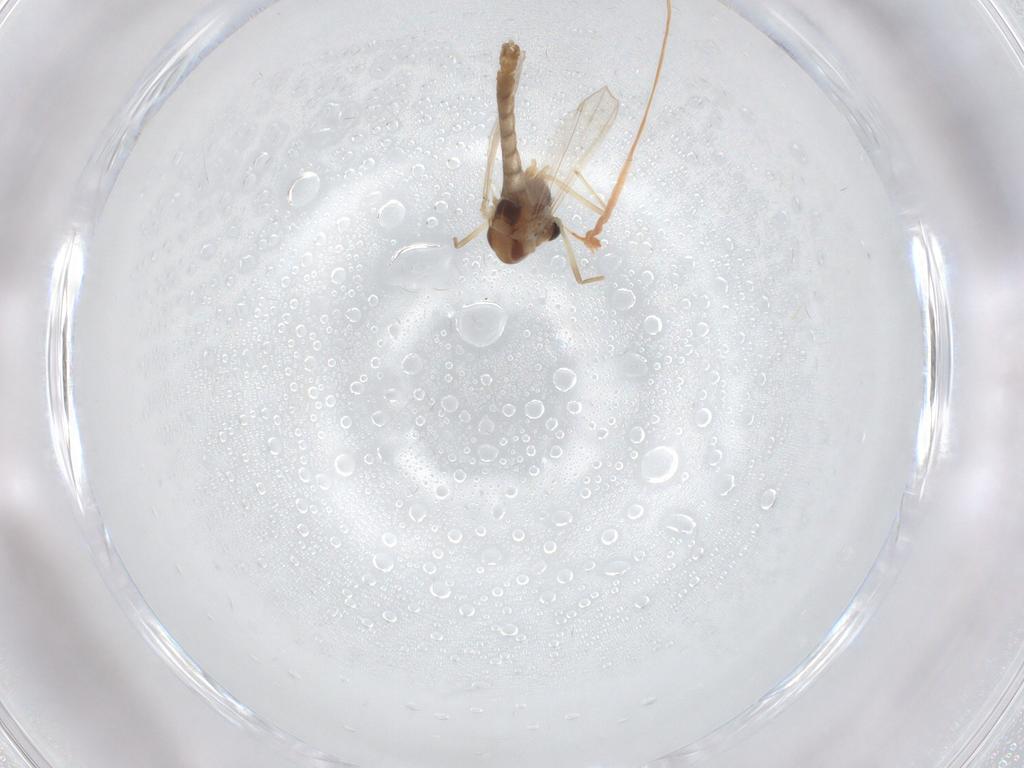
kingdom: Animalia
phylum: Arthropoda
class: Insecta
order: Diptera
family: Chironomidae
